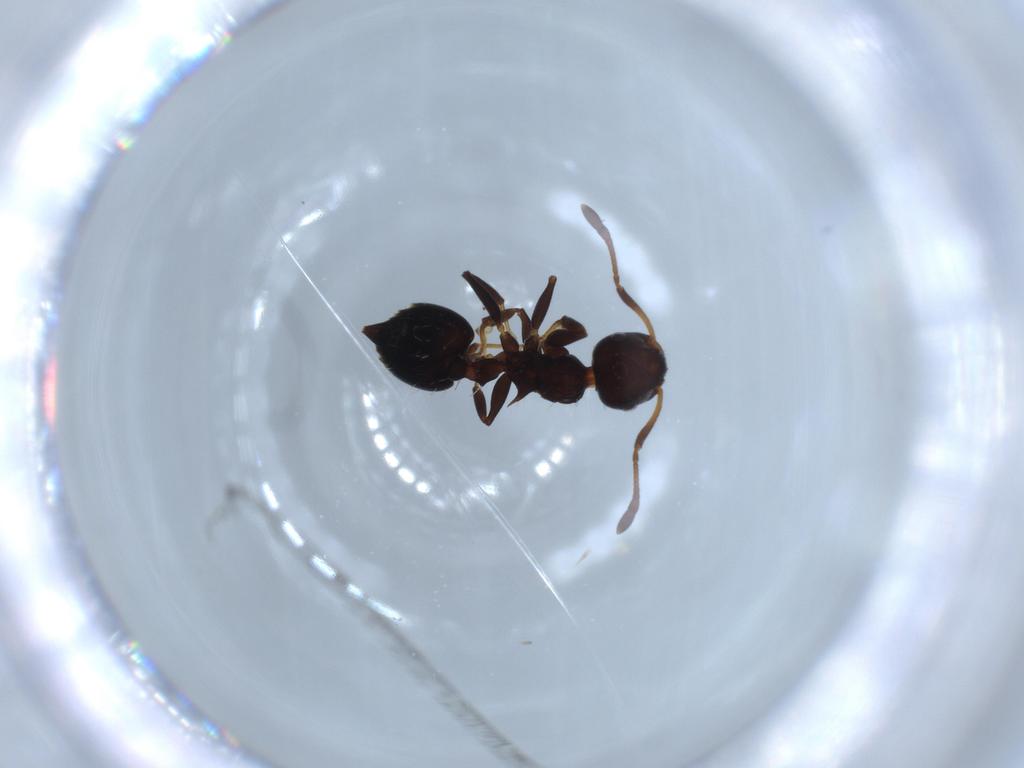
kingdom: Animalia
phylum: Arthropoda
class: Insecta
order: Hymenoptera
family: Formicidae
